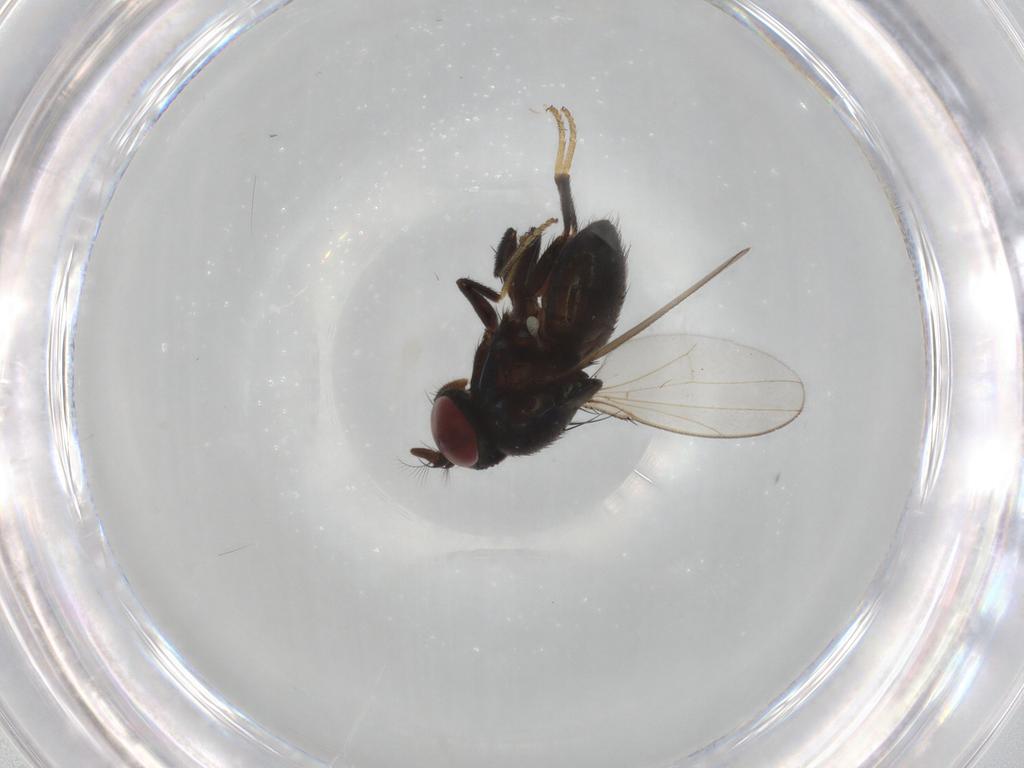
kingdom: Animalia
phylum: Arthropoda
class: Insecta
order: Diptera
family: Ephydridae
